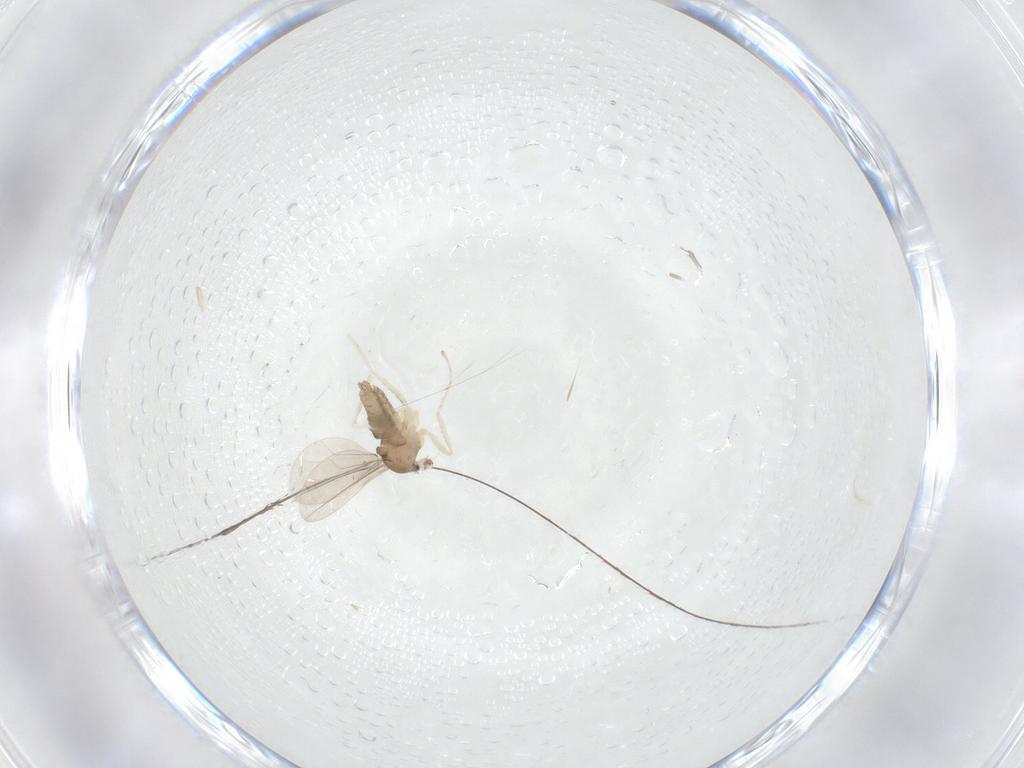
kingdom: Animalia
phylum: Arthropoda
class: Insecta
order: Diptera
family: Cecidomyiidae
